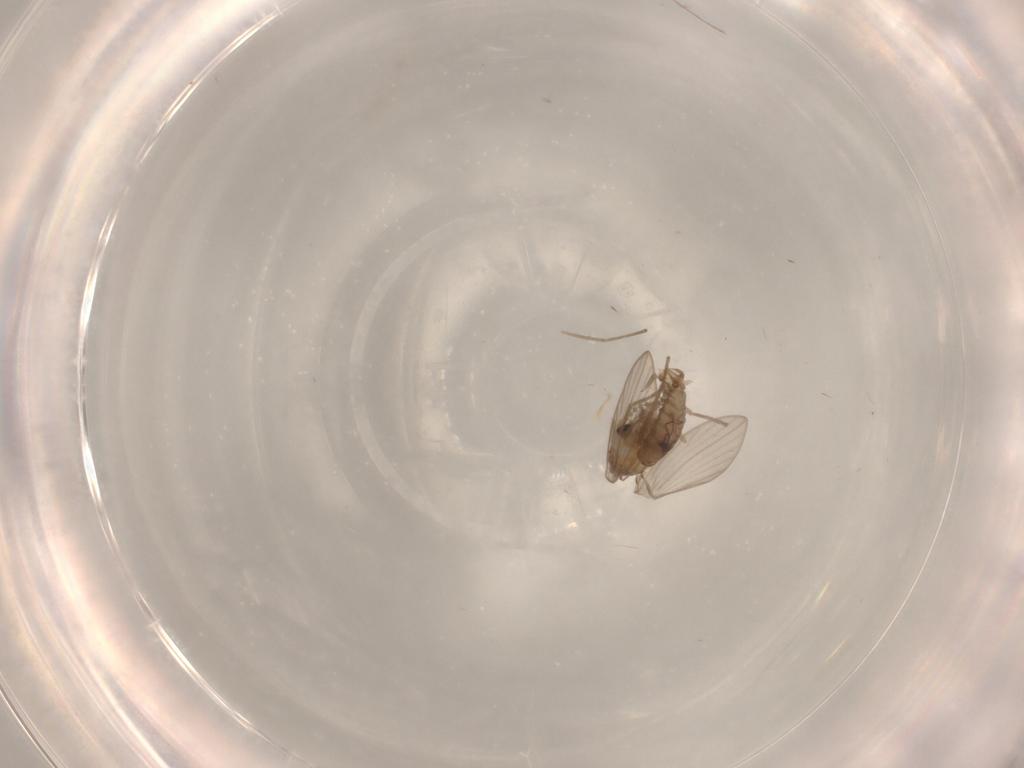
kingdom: Animalia
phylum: Arthropoda
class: Insecta
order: Diptera
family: Psychodidae
